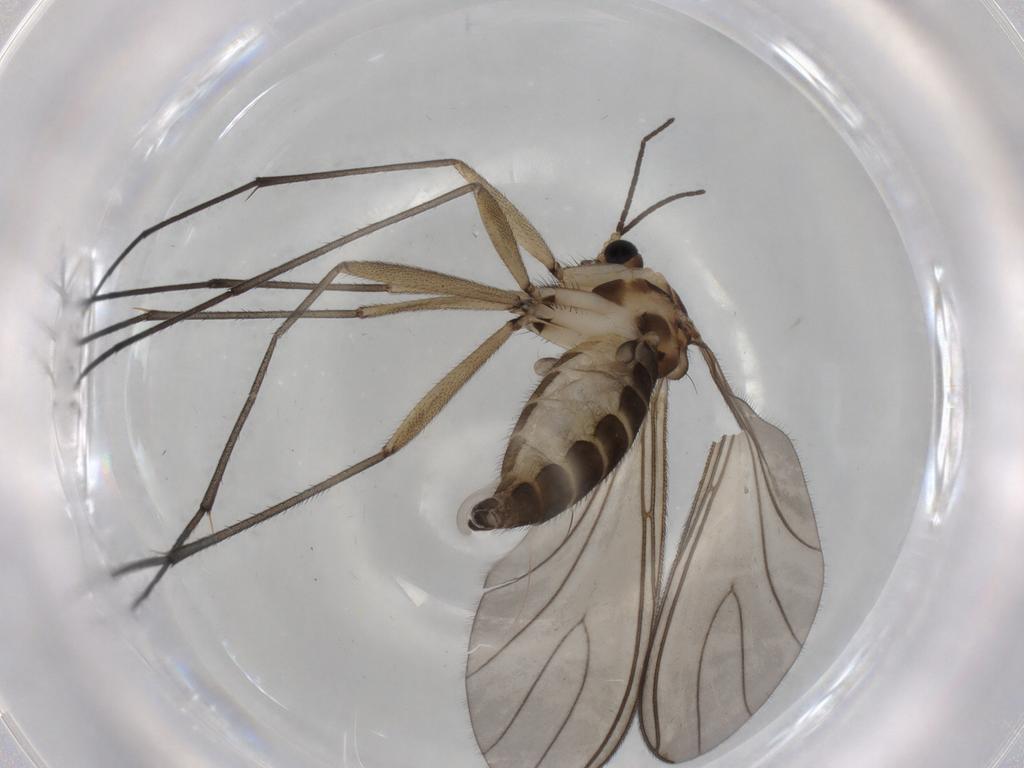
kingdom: Animalia
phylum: Arthropoda
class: Insecta
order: Diptera
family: Sciaridae
